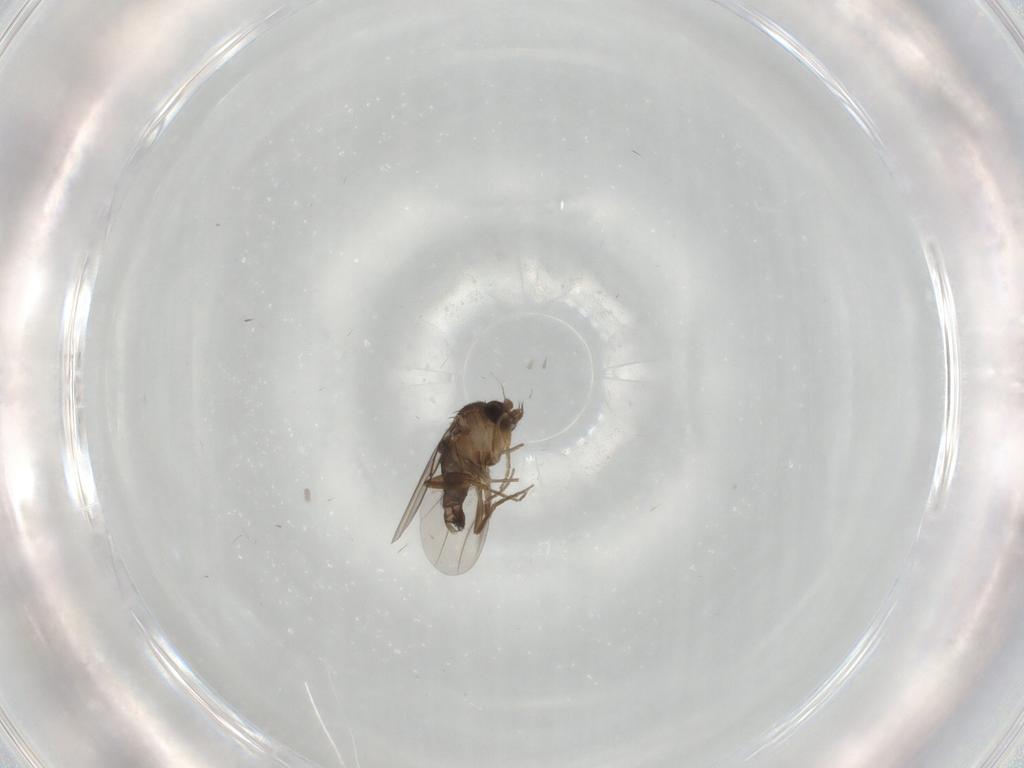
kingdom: Animalia
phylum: Arthropoda
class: Insecta
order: Diptera
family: Phoridae
